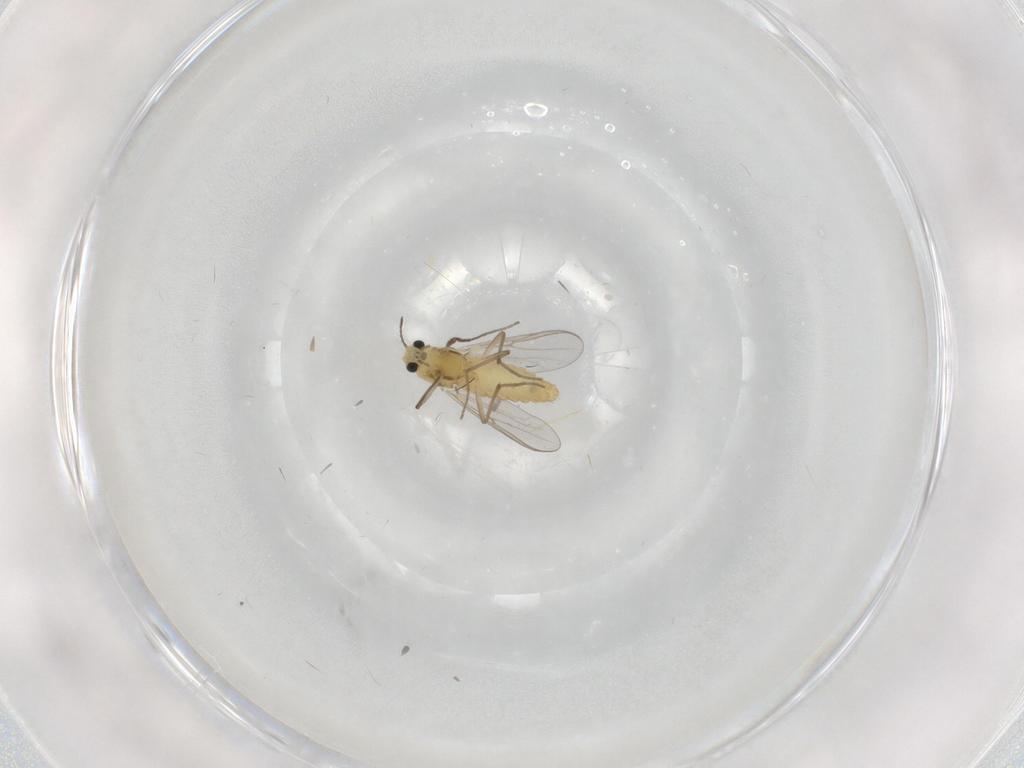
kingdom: Animalia
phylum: Arthropoda
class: Insecta
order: Diptera
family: Chironomidae
